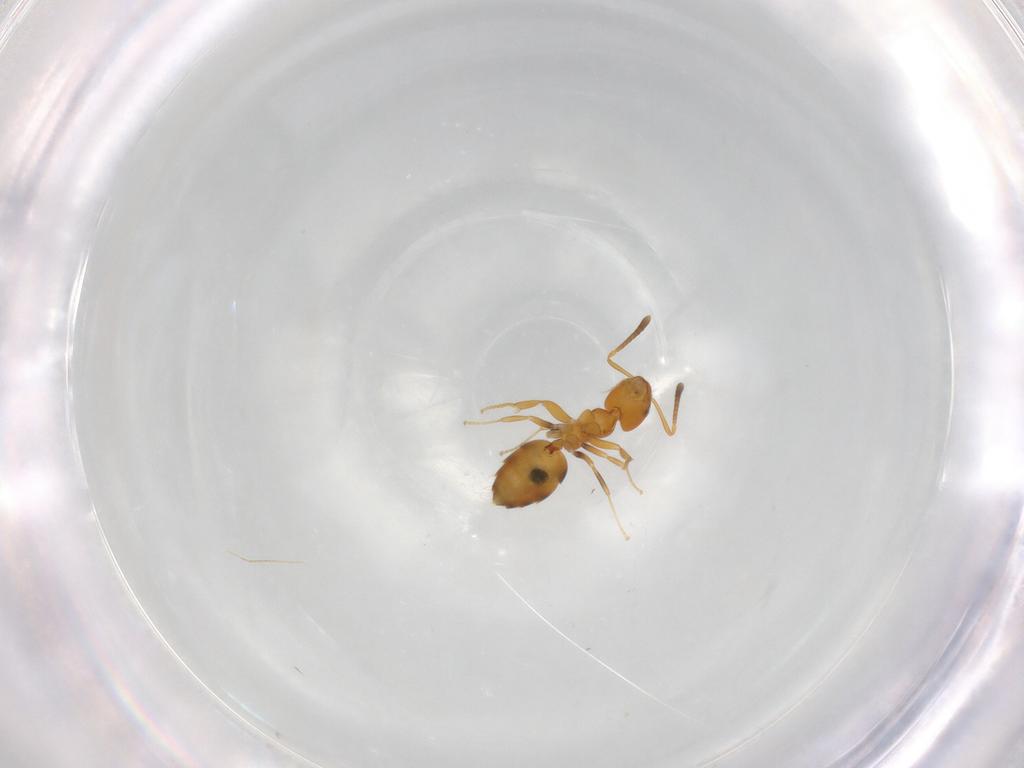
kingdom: Animalia
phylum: Arthropoda
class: Insecta
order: Hymenoptera
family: Formicidae
